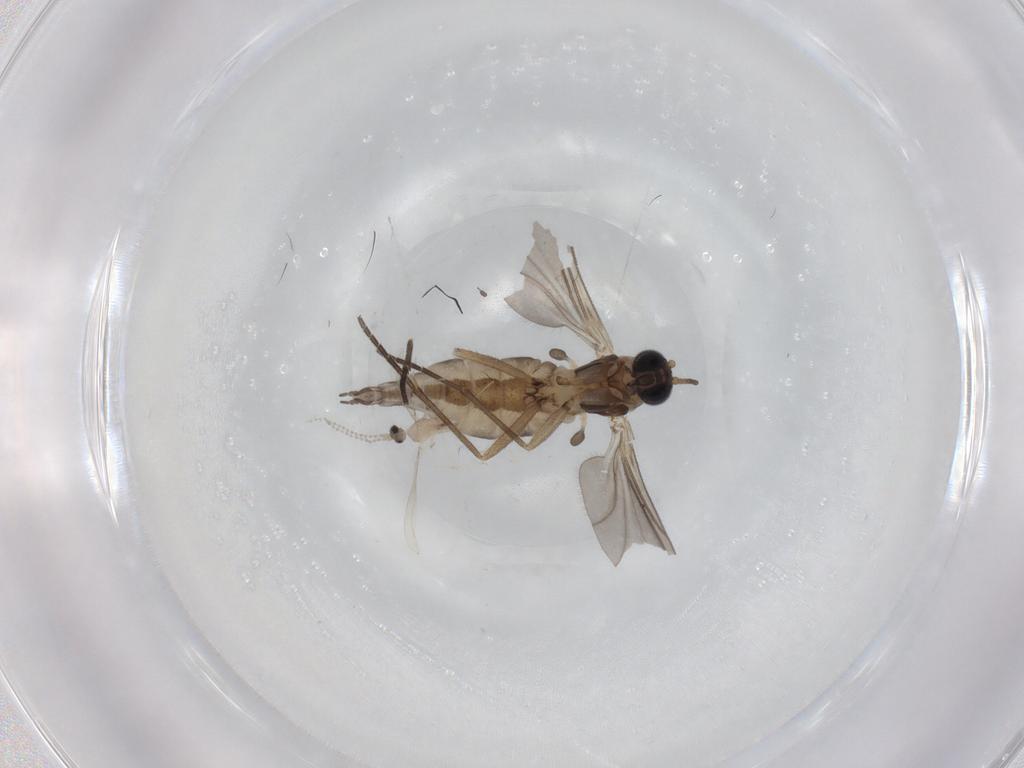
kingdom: Animalia
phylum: Arthropoda
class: Insecta
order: Diptera
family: Cecidomyiidae
